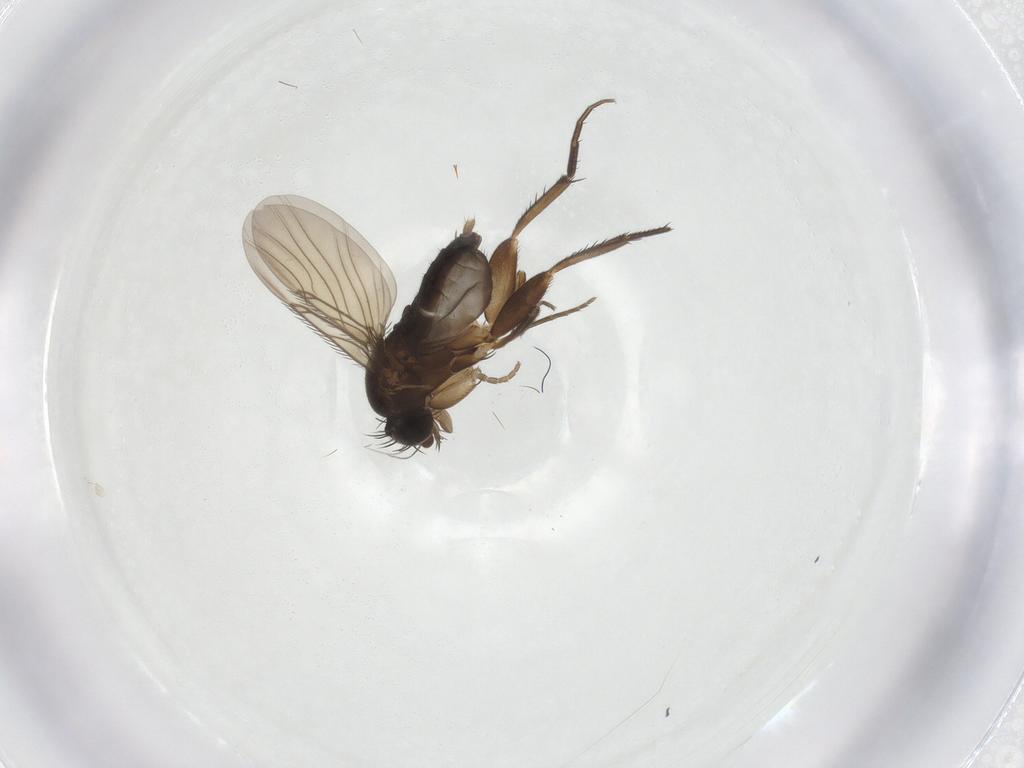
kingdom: Animalia
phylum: Arthropoda
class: Insecta
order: Diptera
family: Phoridae
